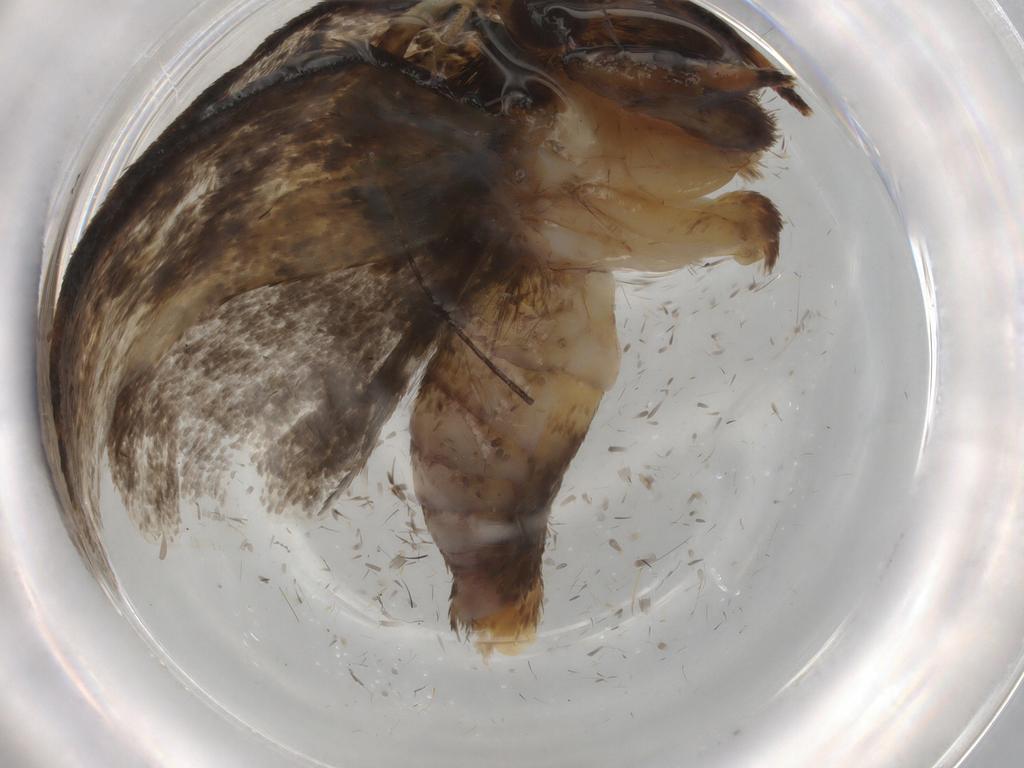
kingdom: Animalia
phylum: Arthropoda
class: Insecta
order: Lepidoptera
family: Tineidae
